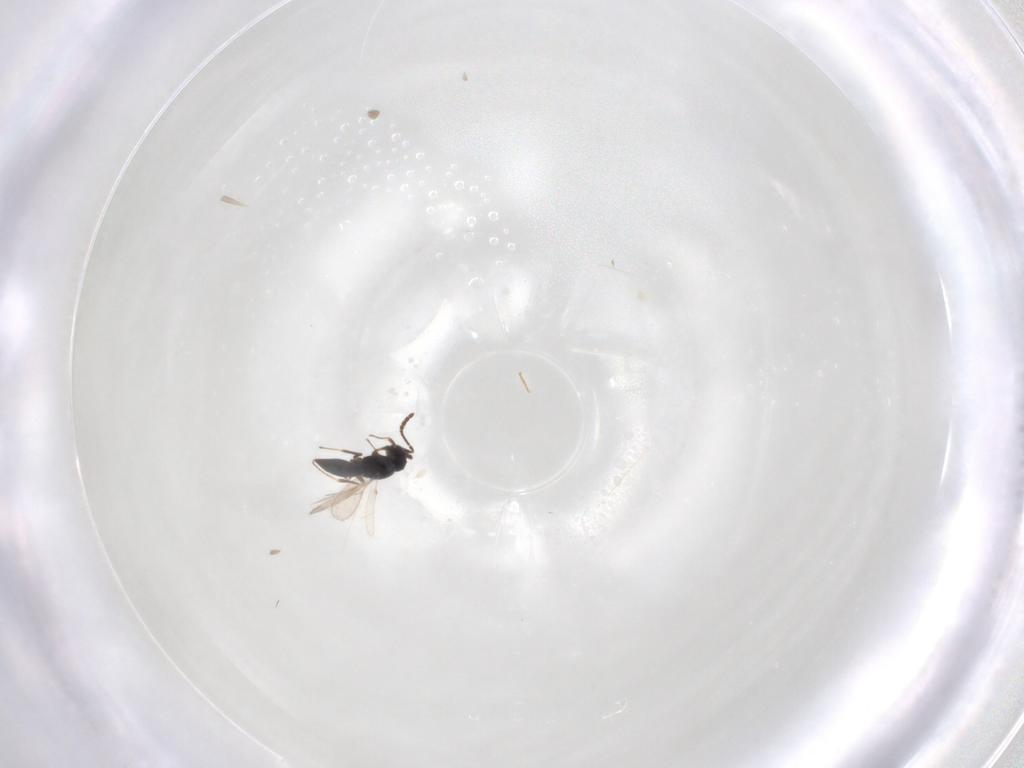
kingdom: Animalia
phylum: Arthropoda
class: Insecta
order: Hymenoptera
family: Scelionidae
